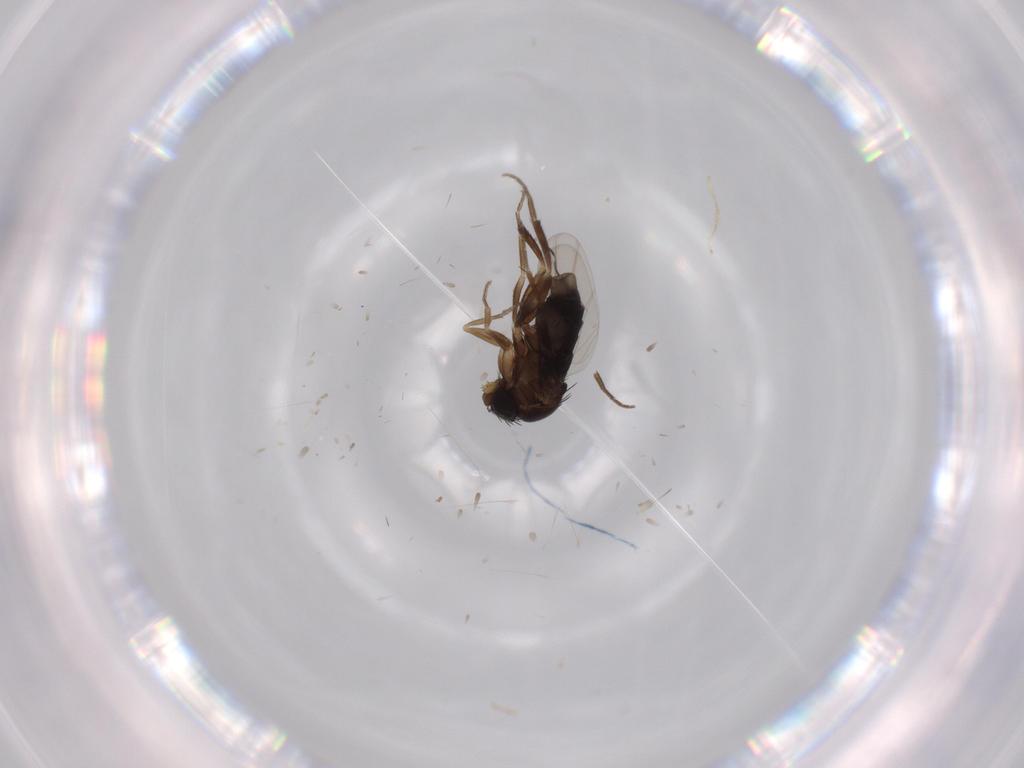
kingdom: Animalia
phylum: Arthropoda
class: Insecta
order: Diptera
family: Phoridae
